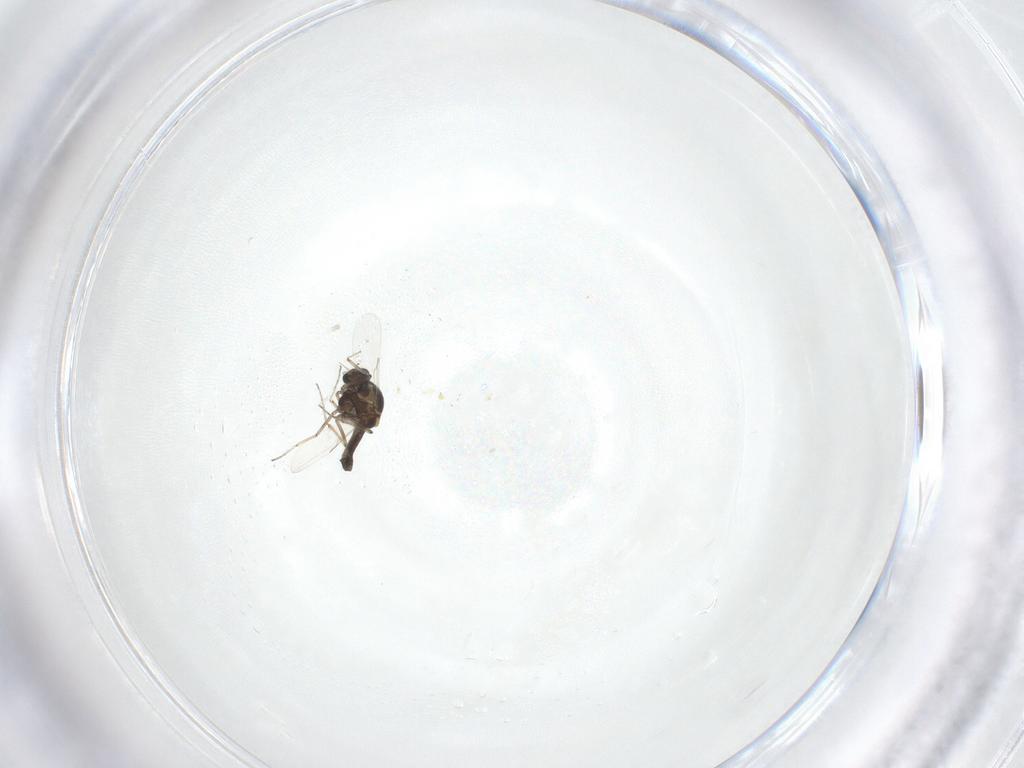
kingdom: Animalia
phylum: Arthropoda
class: Insecta
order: Diptera
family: Ceratopogonidae
